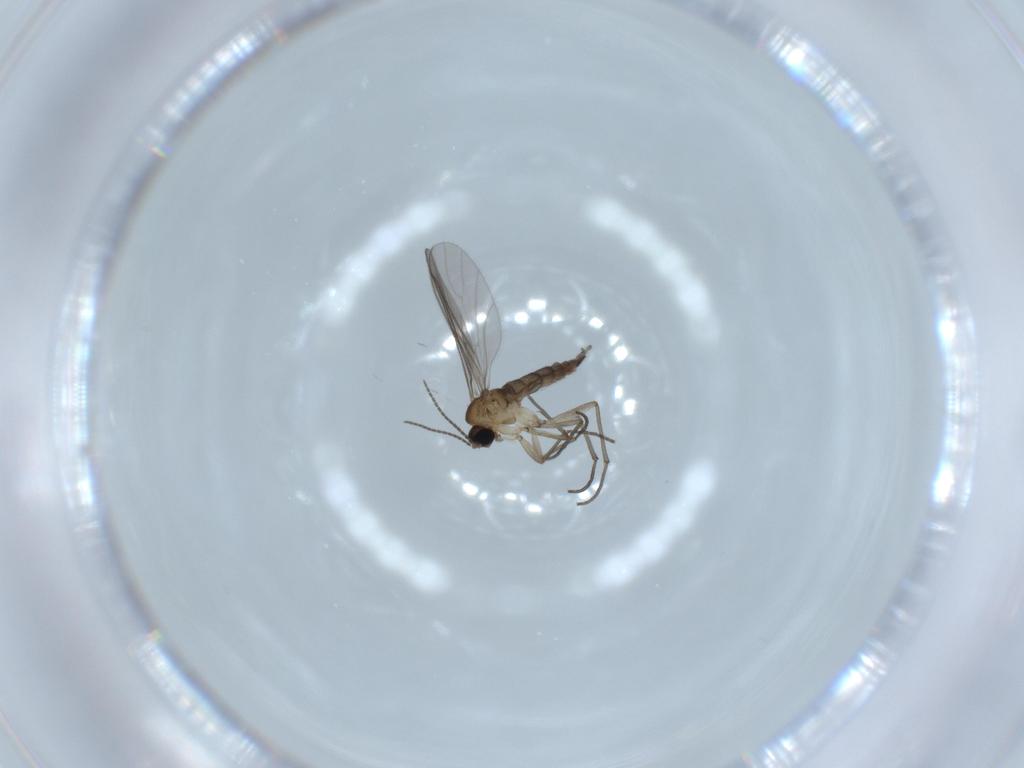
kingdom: Animalia
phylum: Arthropoda
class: Insecta
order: Diptera
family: Sciaridae
